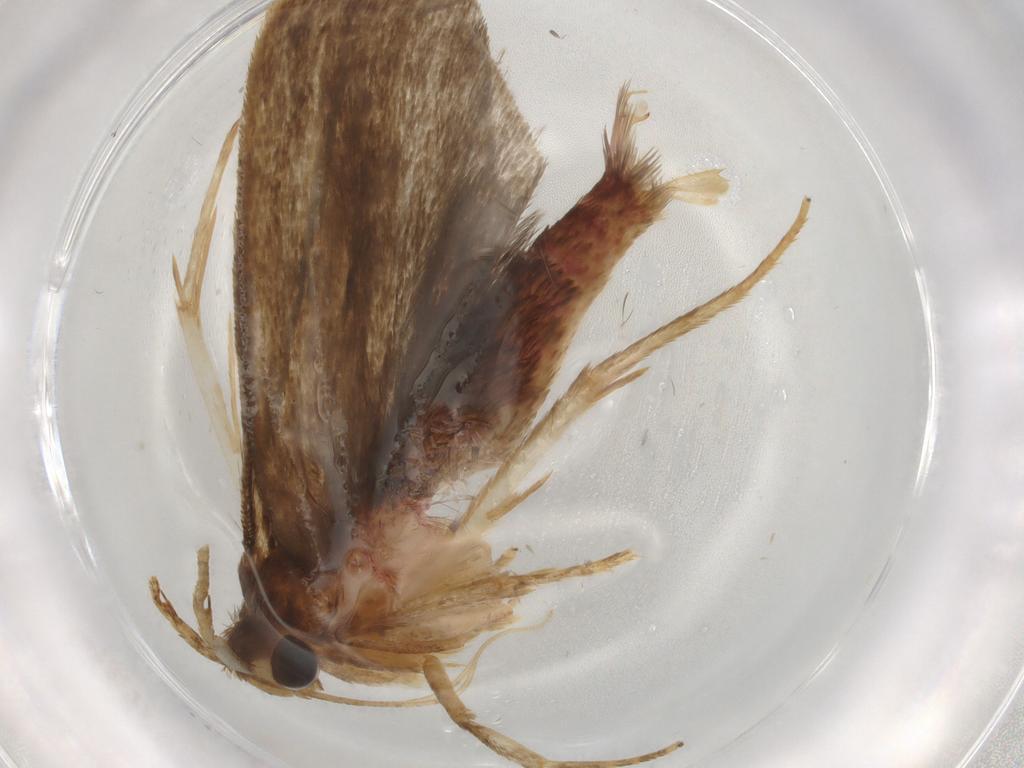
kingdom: Animalia
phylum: Arthropoda
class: Insecta
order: Lepidoptera
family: Autostichidae
